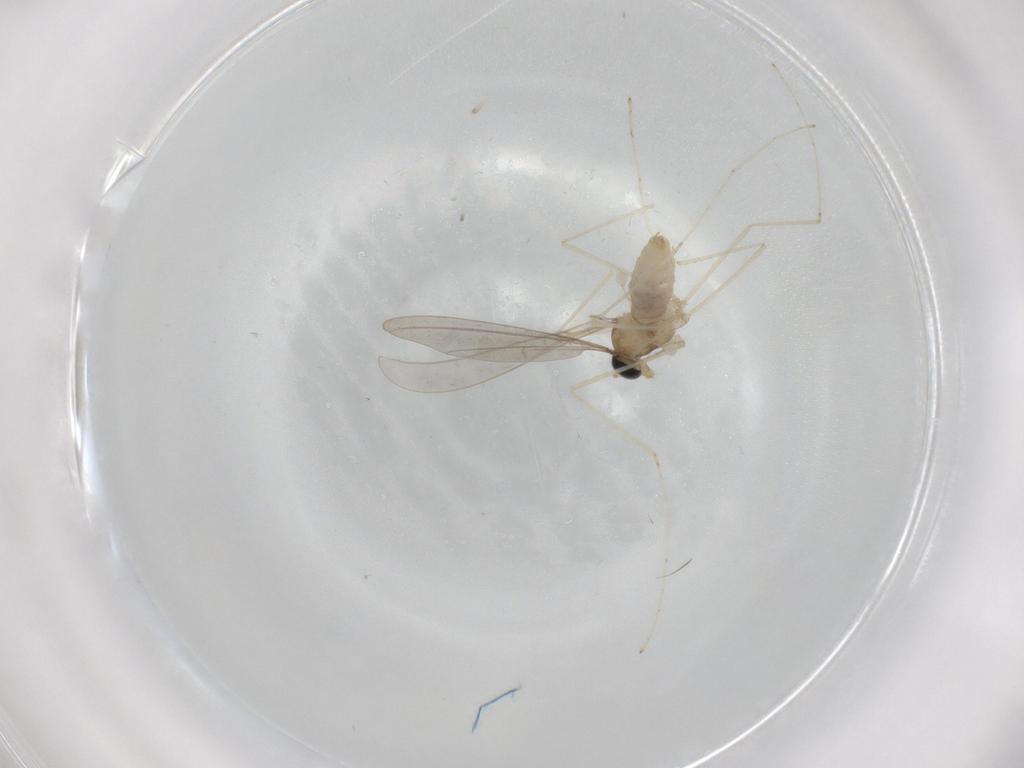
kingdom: Animalia
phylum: Arthropoda
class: Insecta
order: Diptera
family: Cecidomyiidae
